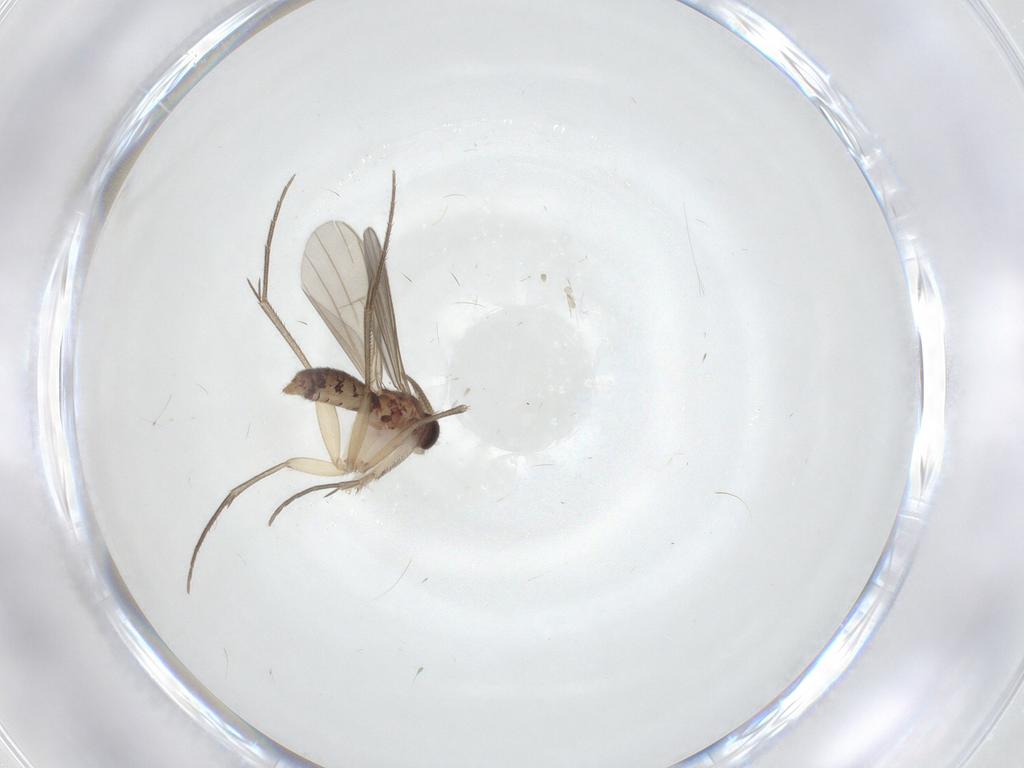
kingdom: Animalia
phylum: Arthropoda
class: Insecta
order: Diptera
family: Mycetophilidae
